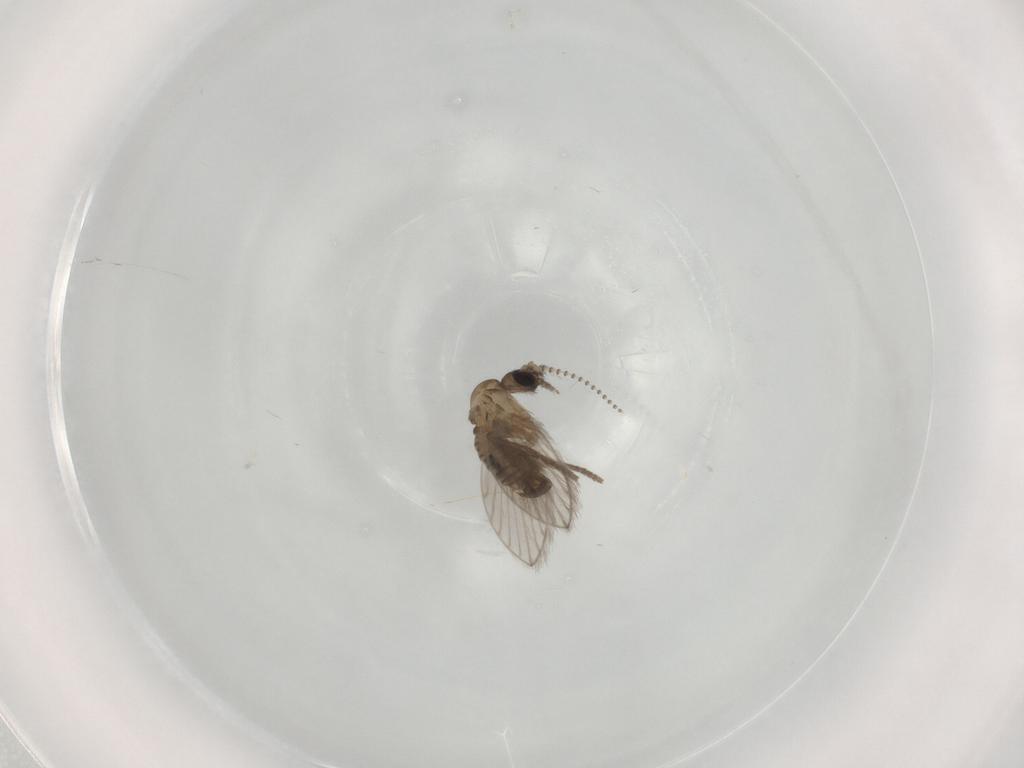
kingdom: Animalia
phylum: Arthropoda
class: Insecta
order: Diptera
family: Psychodidae
